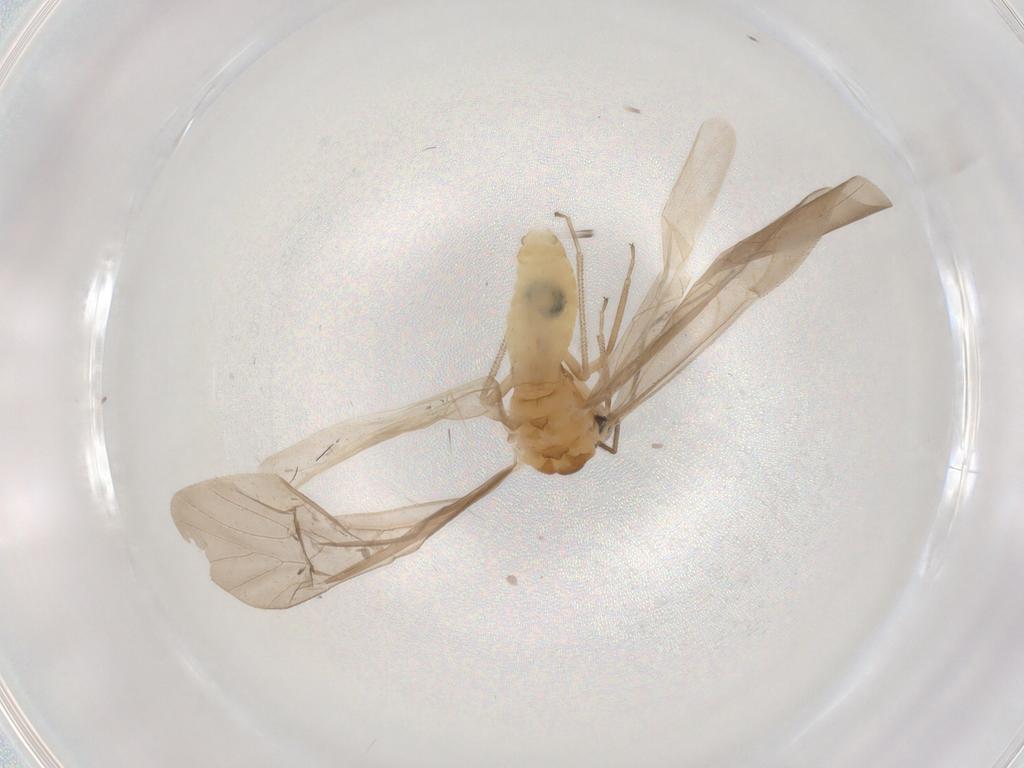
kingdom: Animalia
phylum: Arthropoda
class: Insecta
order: Psocodea
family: Caeciliusidae
